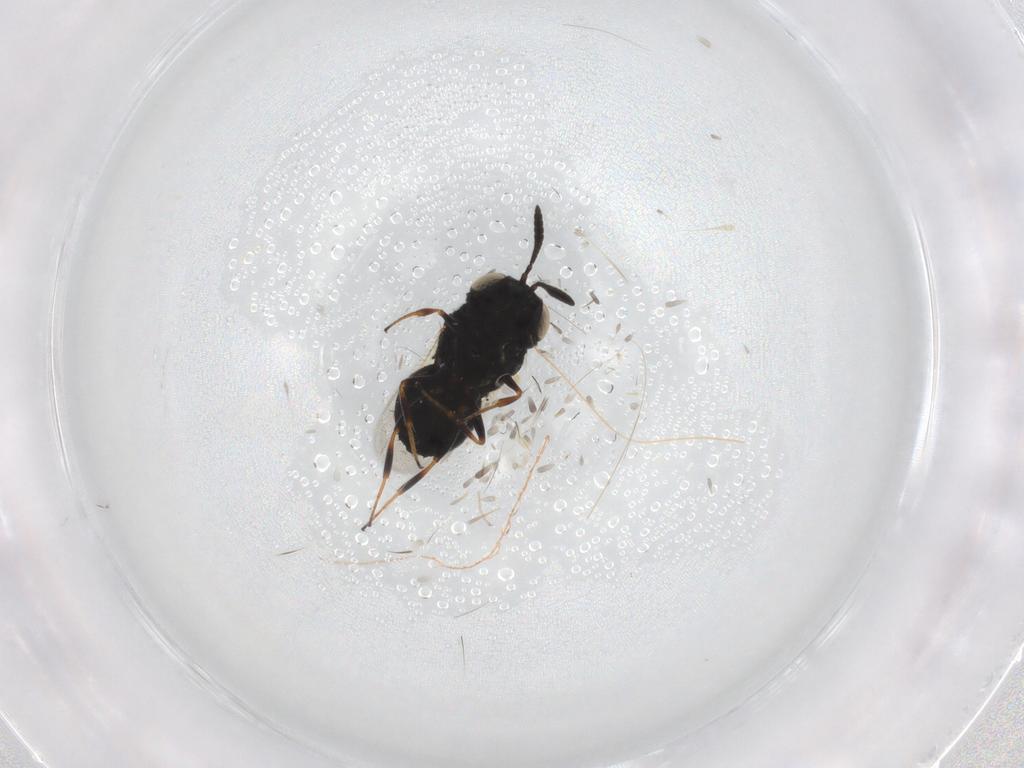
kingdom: Animalia
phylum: Arthropoda
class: Insecta
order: Hymenoptera
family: Scelionidae
